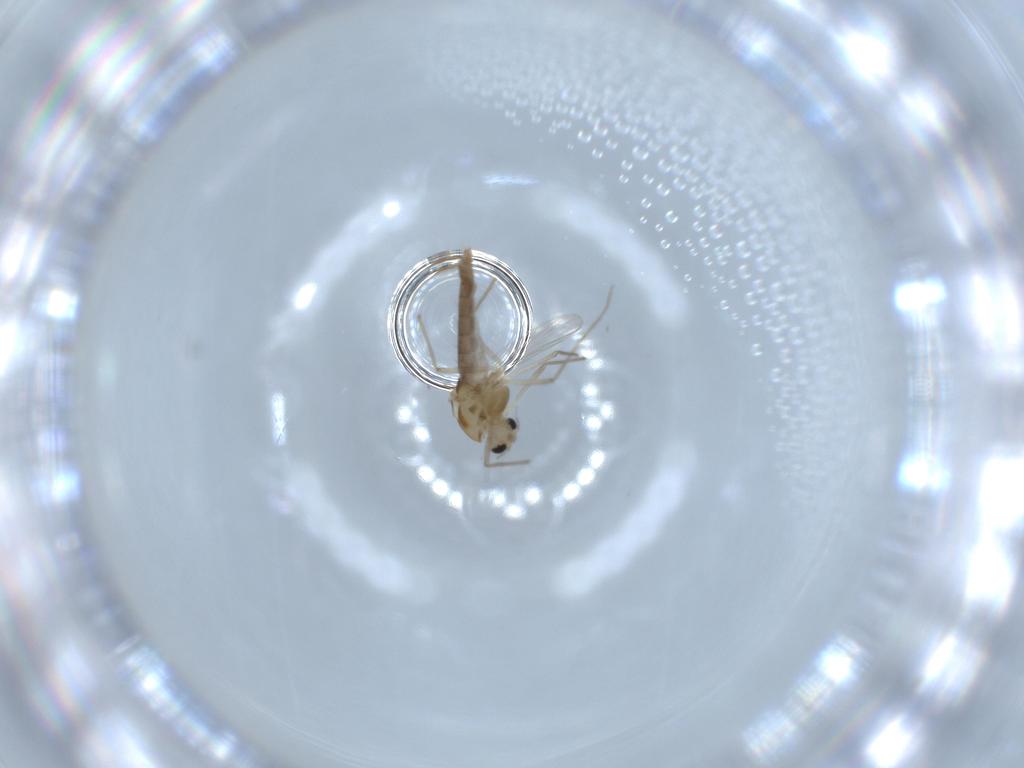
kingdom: Animalia
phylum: Arthropoda
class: Insecta
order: Diptera
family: Chironomidae
